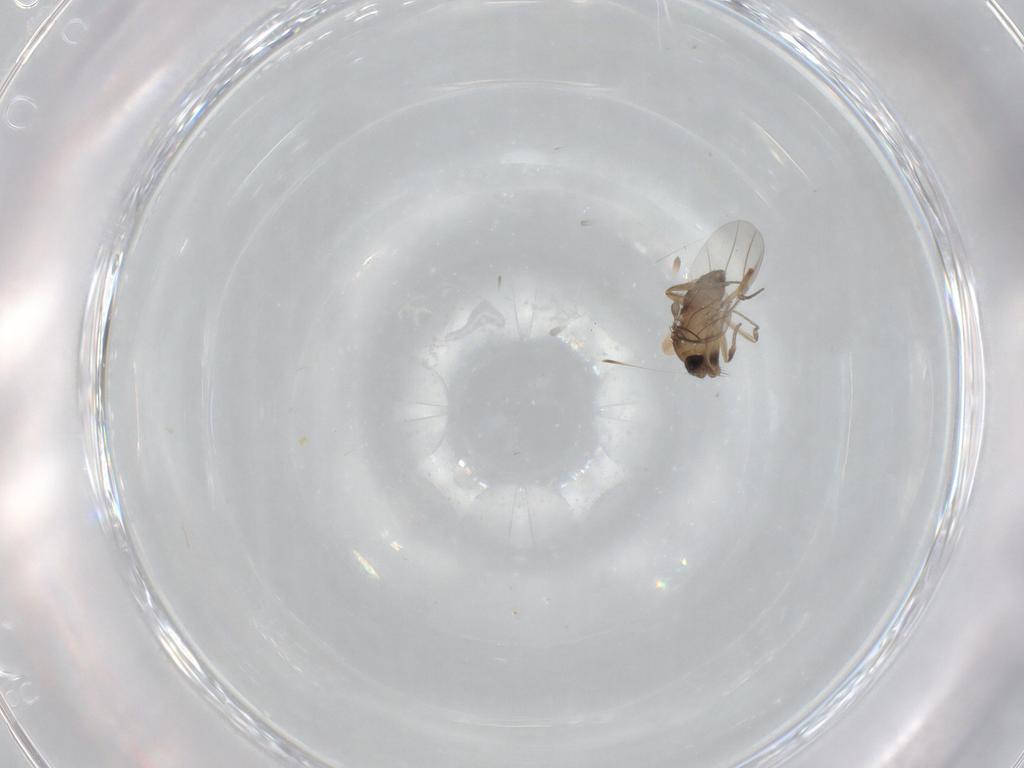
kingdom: Animalia
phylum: Arthropoda
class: Insecta
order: Diptera
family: Phoridae
